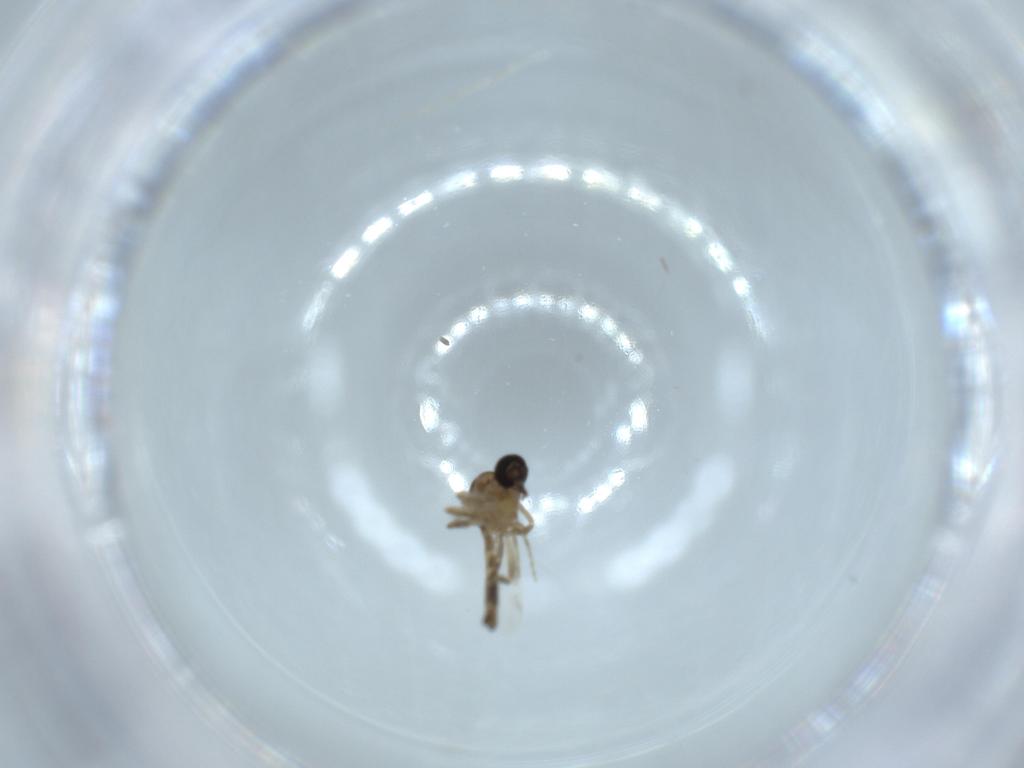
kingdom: Animalia
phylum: Arthropoda
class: Insecta
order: Diptera
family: Ceratopogonidae
